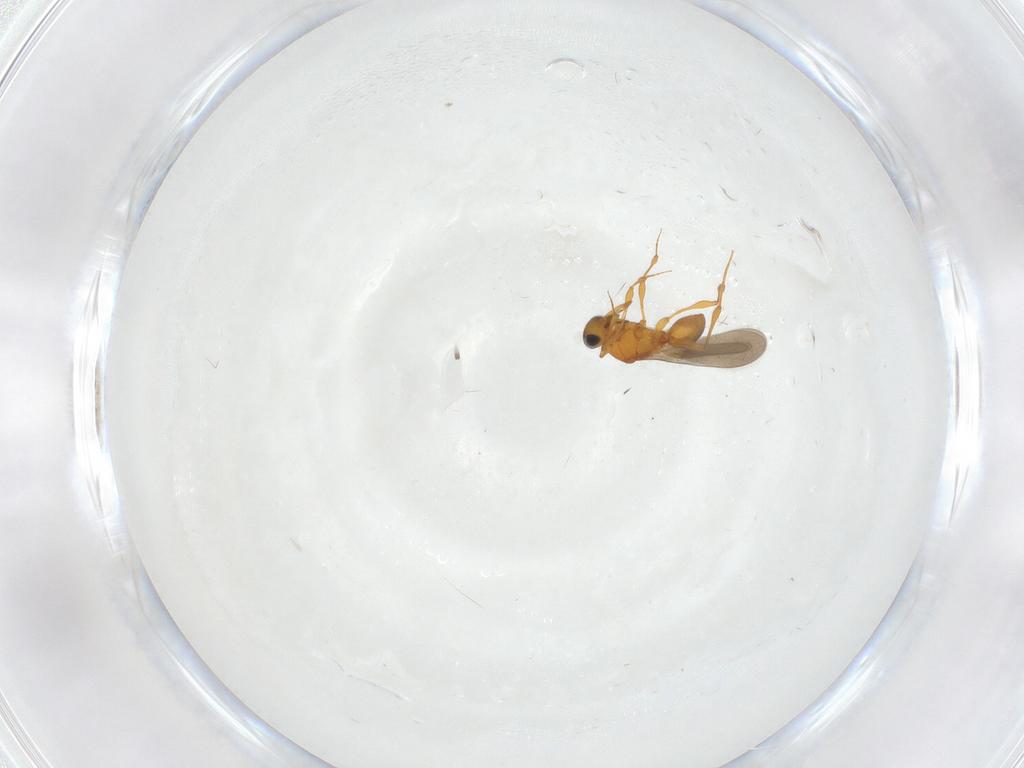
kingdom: Animalia
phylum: Arthropoda
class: Insecta
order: Hymenoptera
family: Platygastridae
